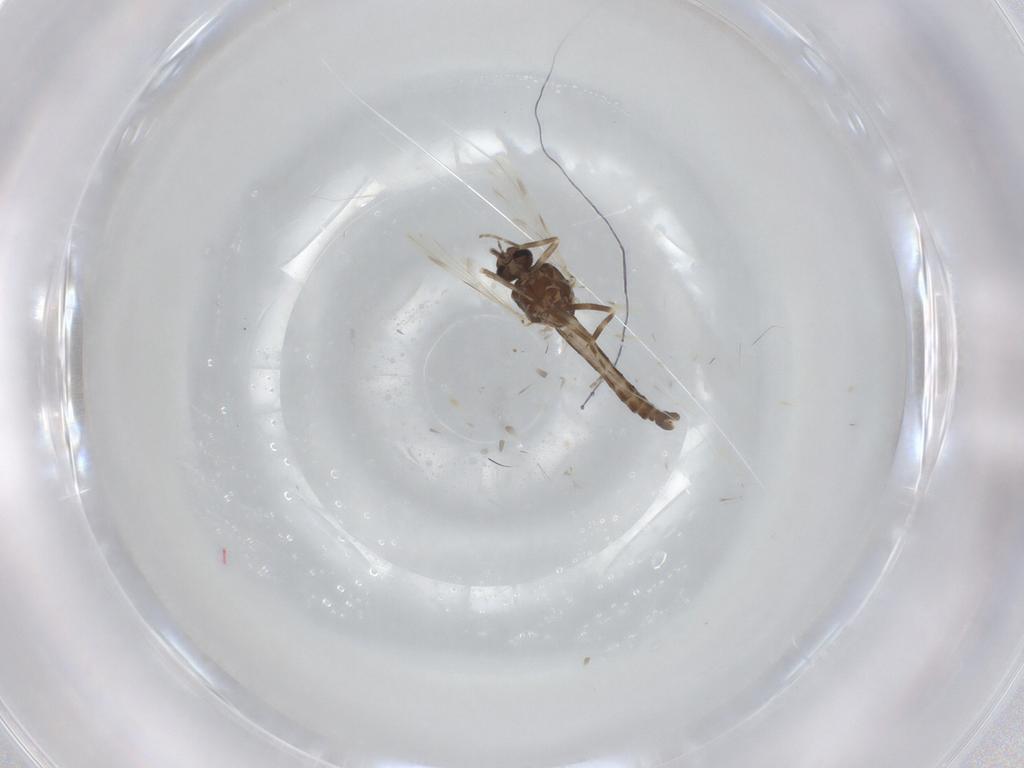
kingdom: Animalia
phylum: Arthropoda
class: Insecta
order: Diptera
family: Ceratopogonidae
